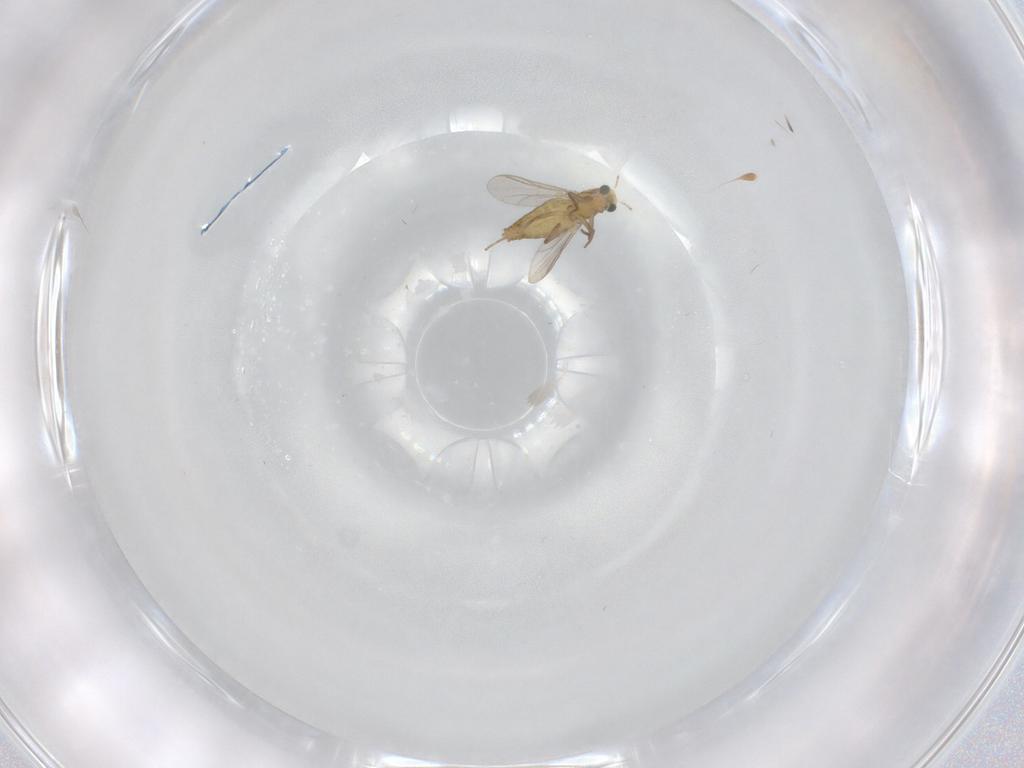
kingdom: Animalia
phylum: Arthropoda
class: Insecta
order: Diptera
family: Chironomidae
